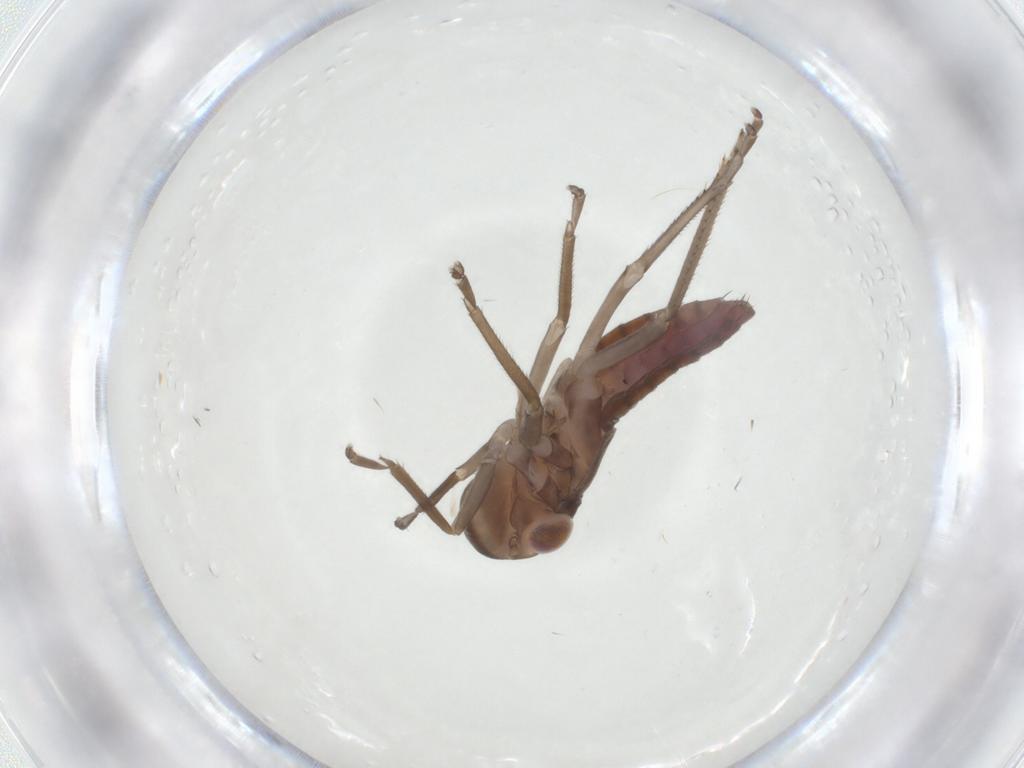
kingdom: Animalia
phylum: Arthropoda
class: Insecta
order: Hemiptera
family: Cicadellidae
